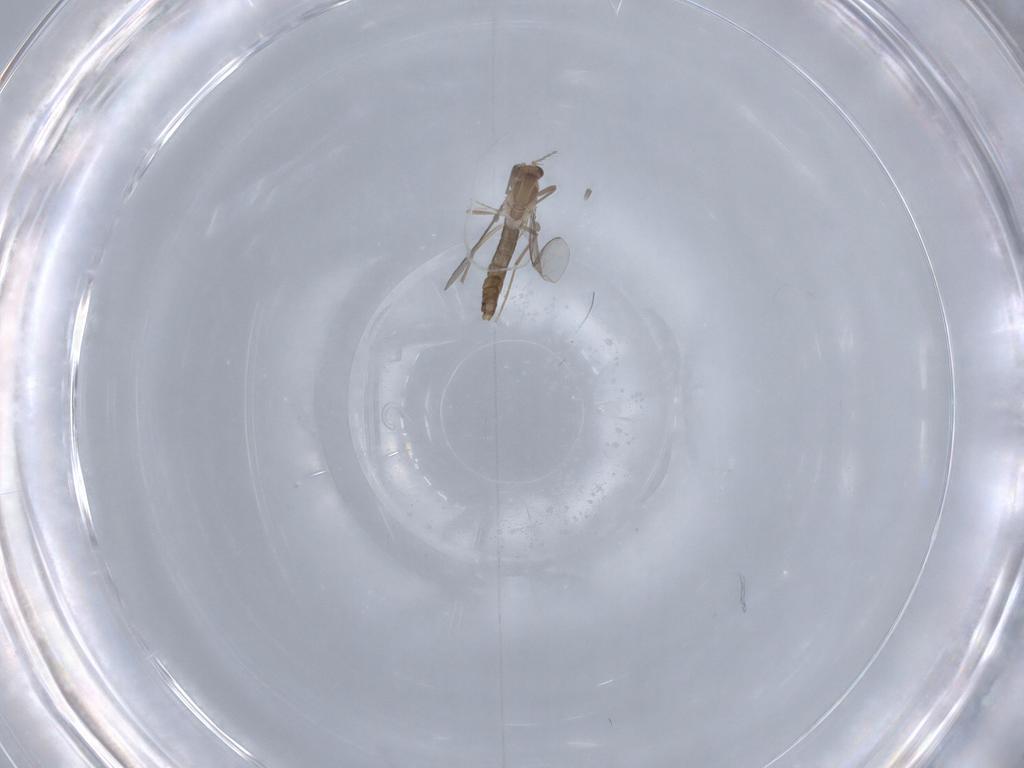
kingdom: Animalia
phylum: Arthropoda
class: Insecta
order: Diptera
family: Chironomidae
